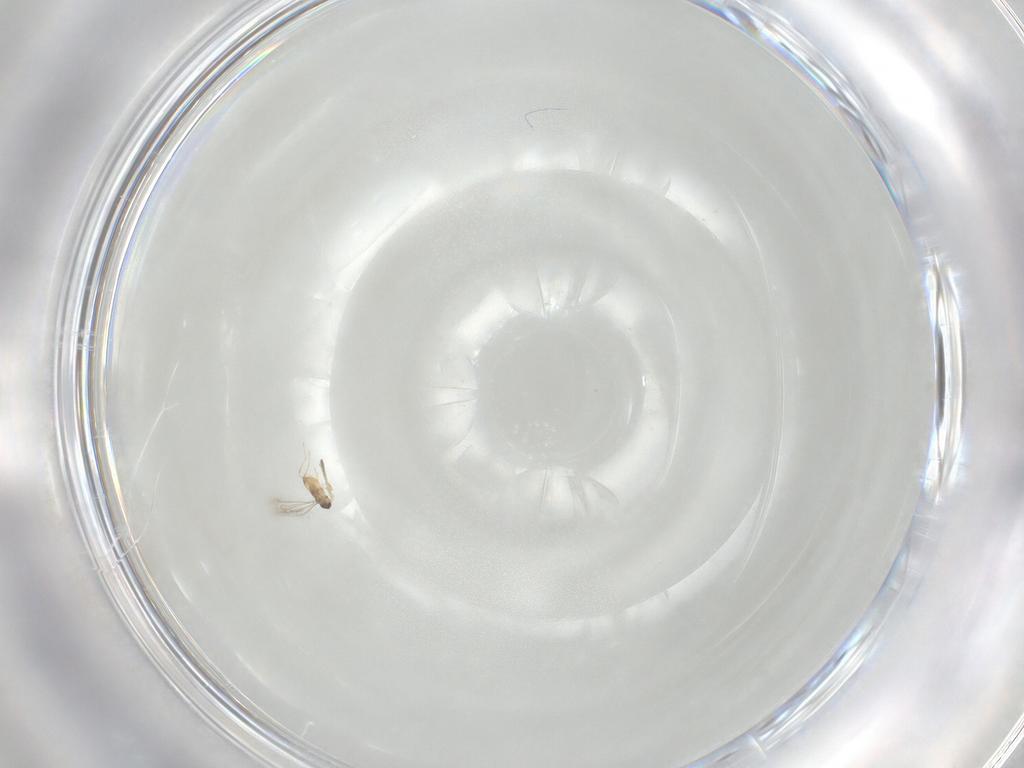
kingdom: Animalia
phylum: Arthropoda
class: Insecta
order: Hymenoptera
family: Mymaridae
